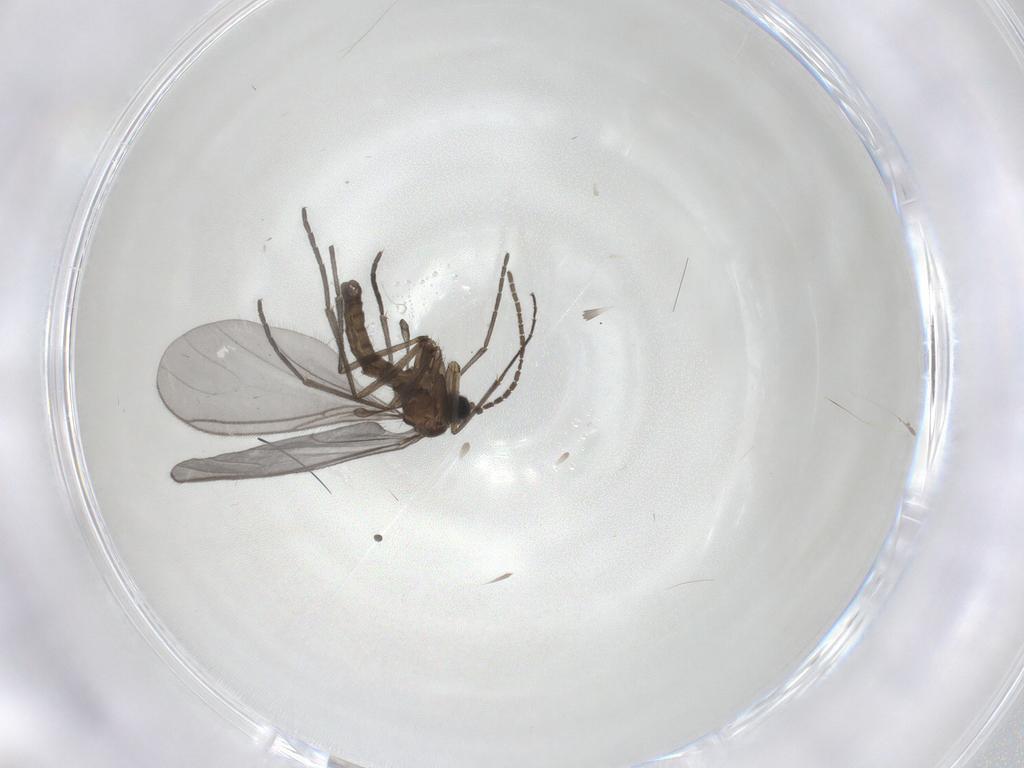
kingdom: Animalia
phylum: Arthropoda
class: Insecta
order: Diptera
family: Sciaridae
